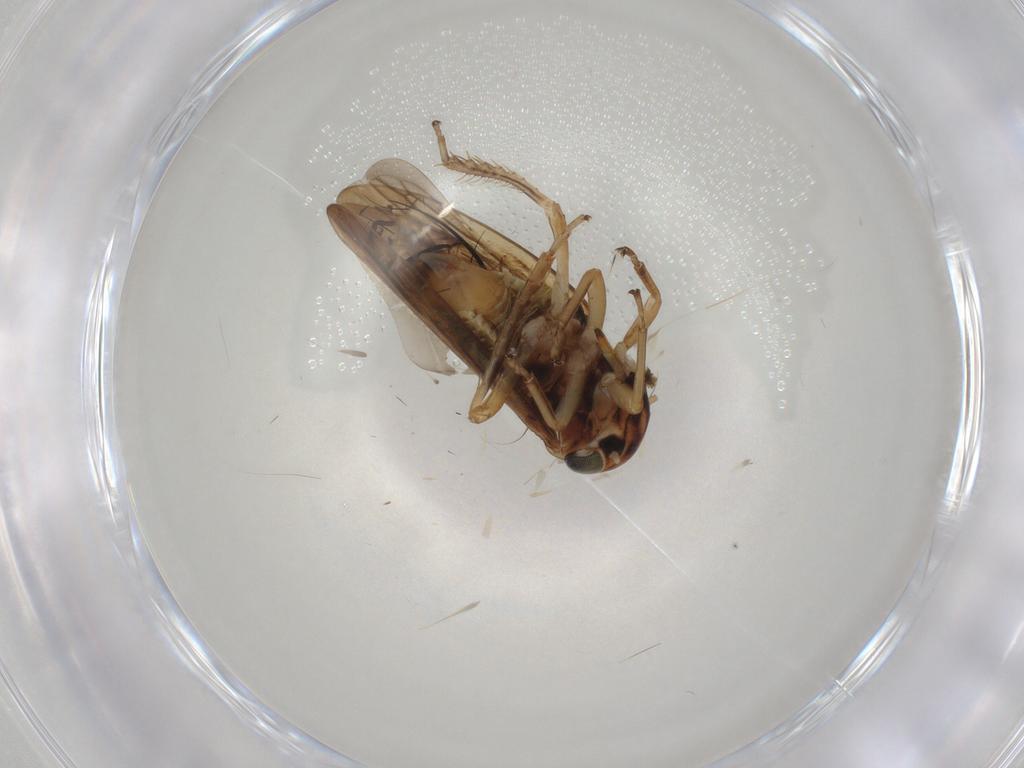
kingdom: Animalia
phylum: Arthropoda
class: Insecta
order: Hemiptera
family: Cicadellidae
